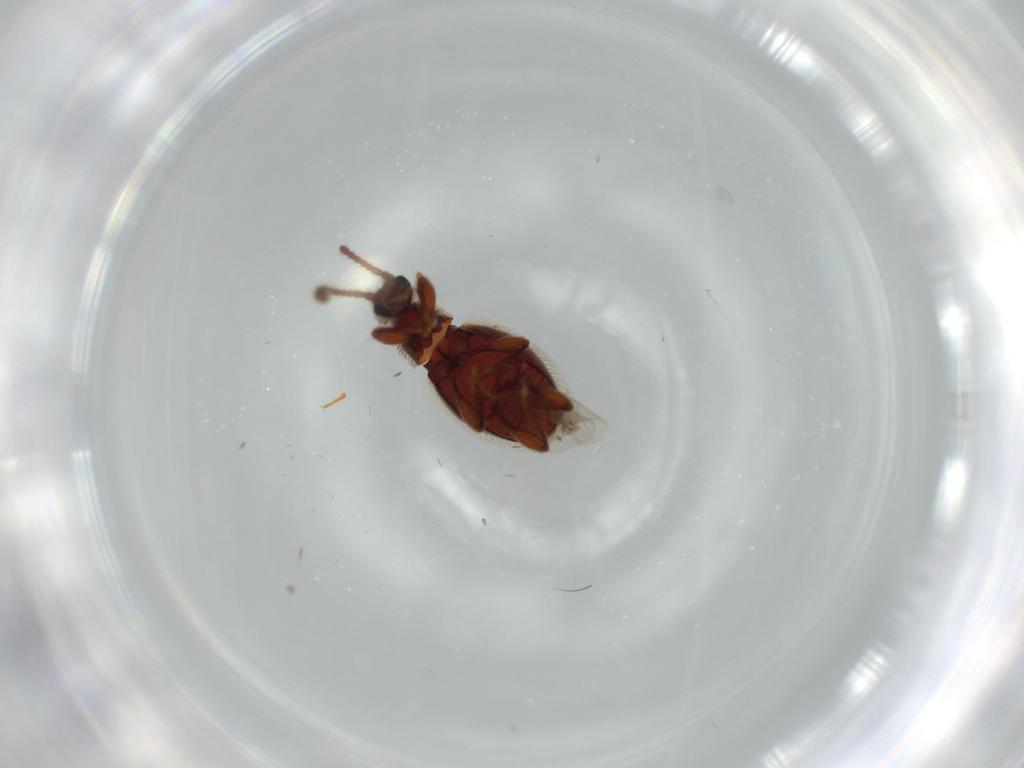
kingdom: Animalia
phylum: Arthropoda
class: Insecta
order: Coleoptera
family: Staphylinidae
